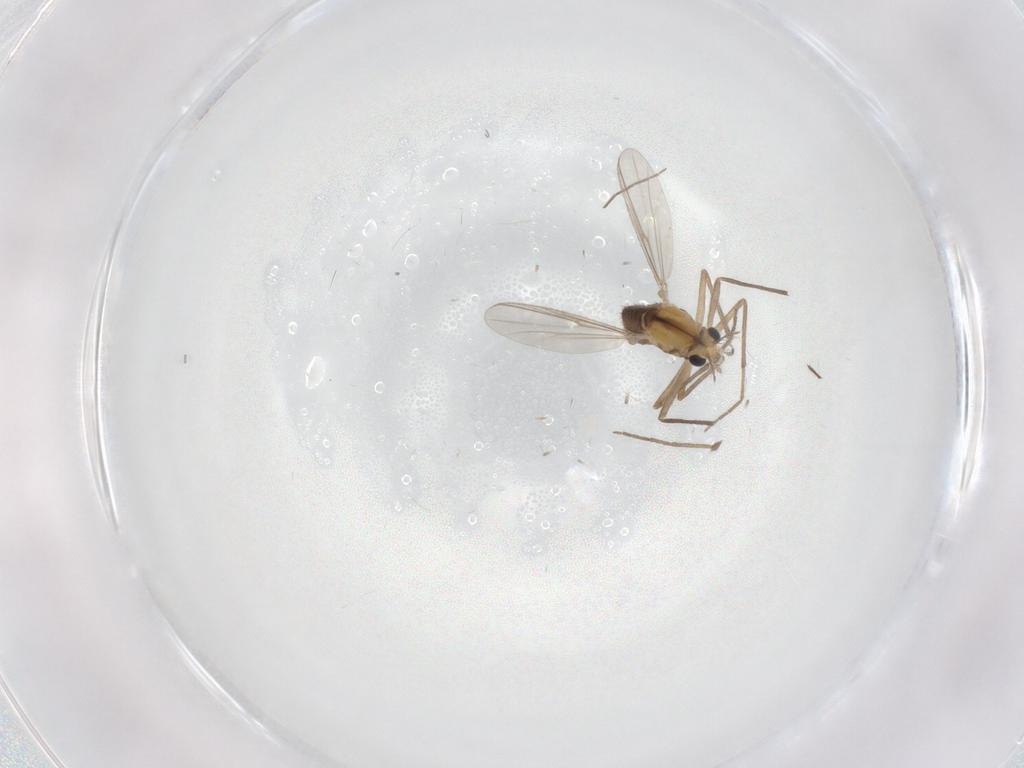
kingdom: Animalia
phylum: Arthropoda
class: Insecta
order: Diptera
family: Chironomidae
